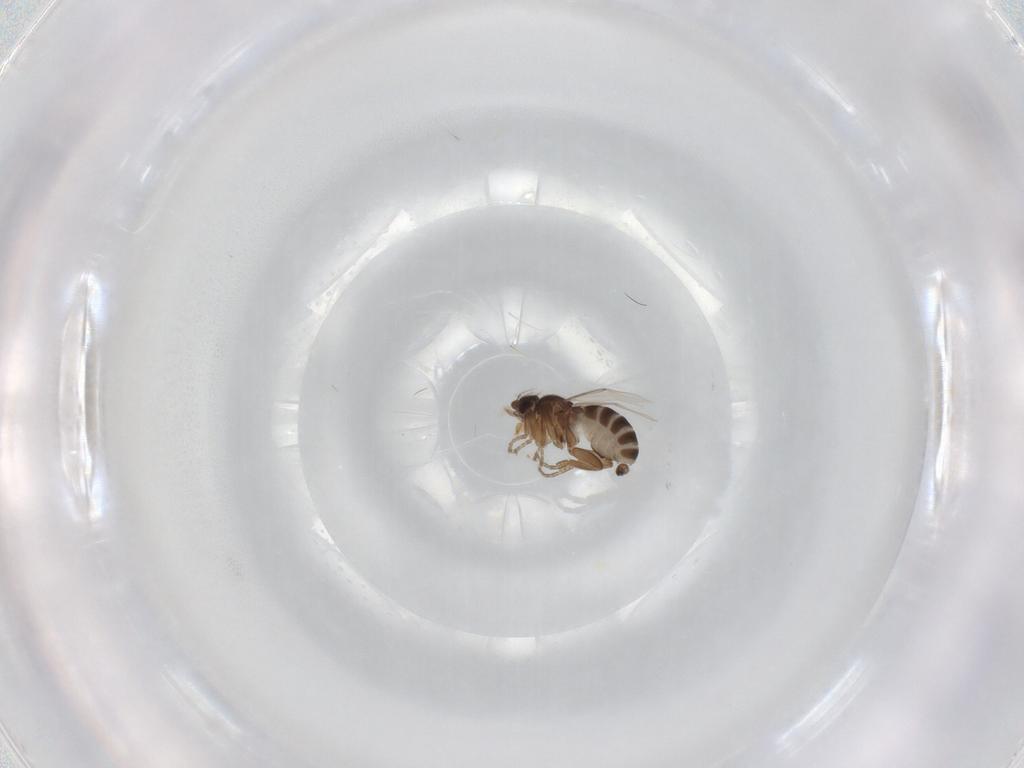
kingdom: Animalia
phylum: Arthropoda
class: Insecta
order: Diptera
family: Phoridae
